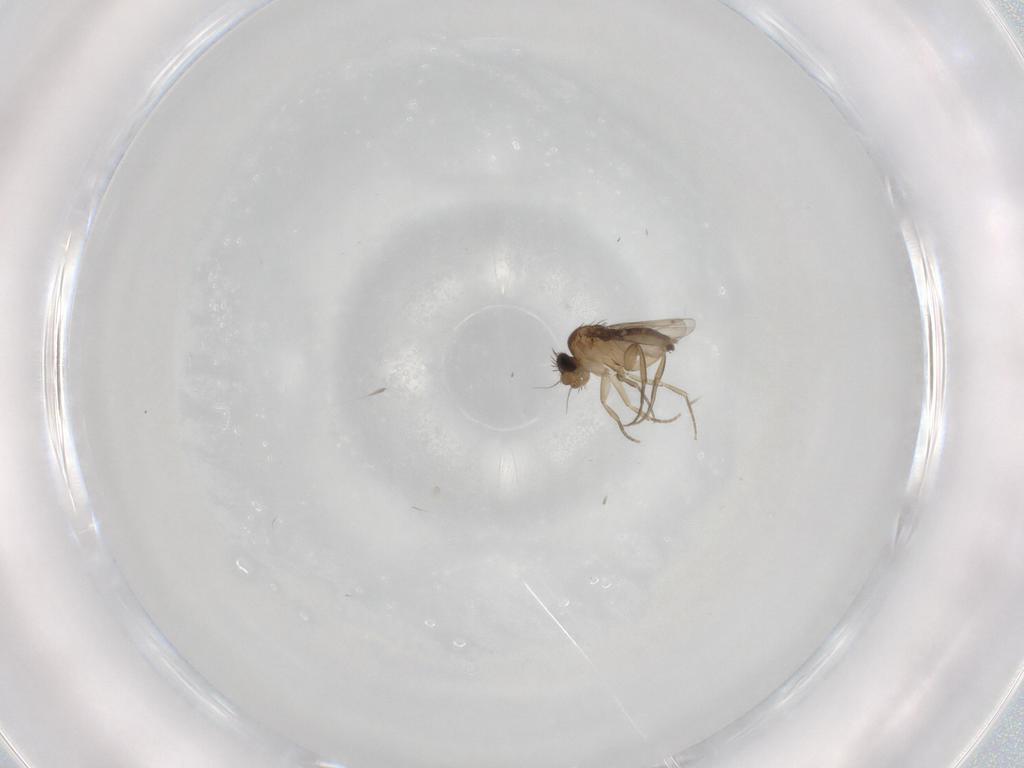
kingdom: Animalia
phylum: Arthropoda
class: Insecta
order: Diptera
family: Phoridae
